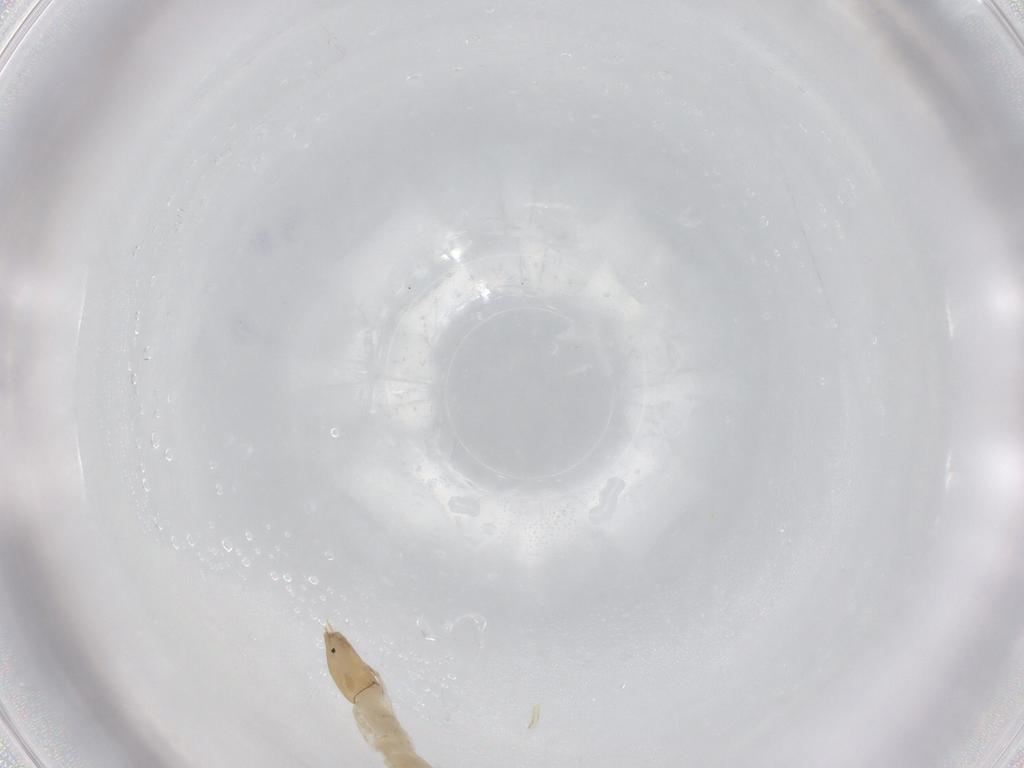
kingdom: Animalia
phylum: Arthropoda
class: Insecta
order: Diptera
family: Chironomidae
